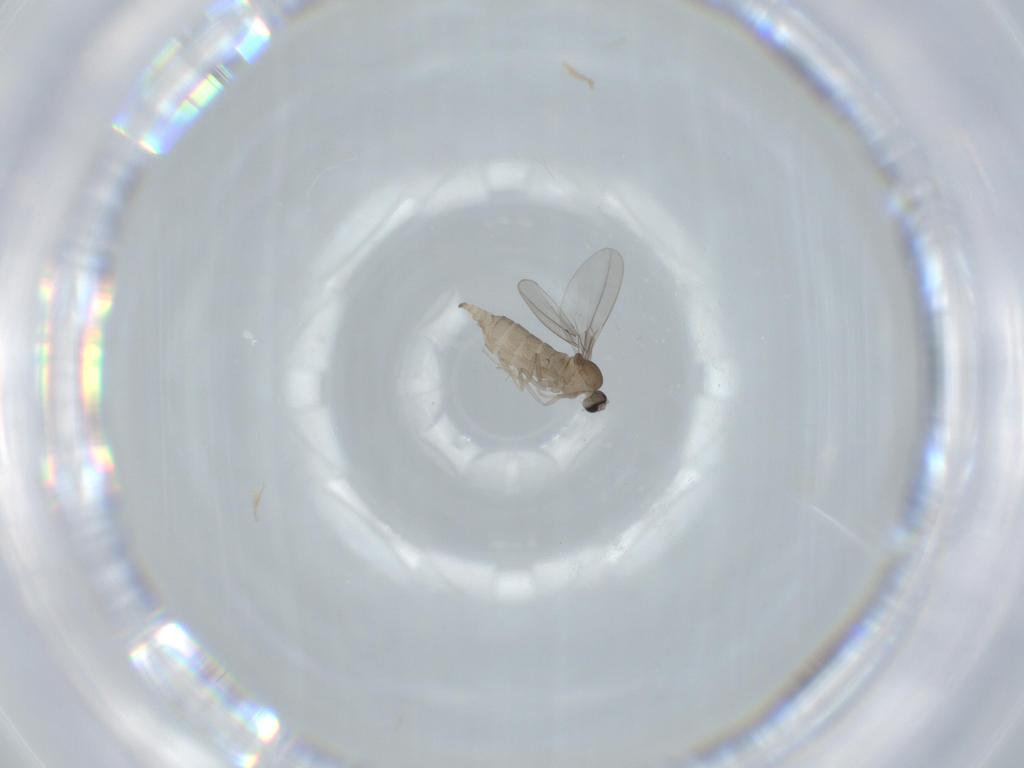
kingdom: Animalia
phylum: Arthropoda
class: Insecta
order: Diptera
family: Cecidomyiidae
